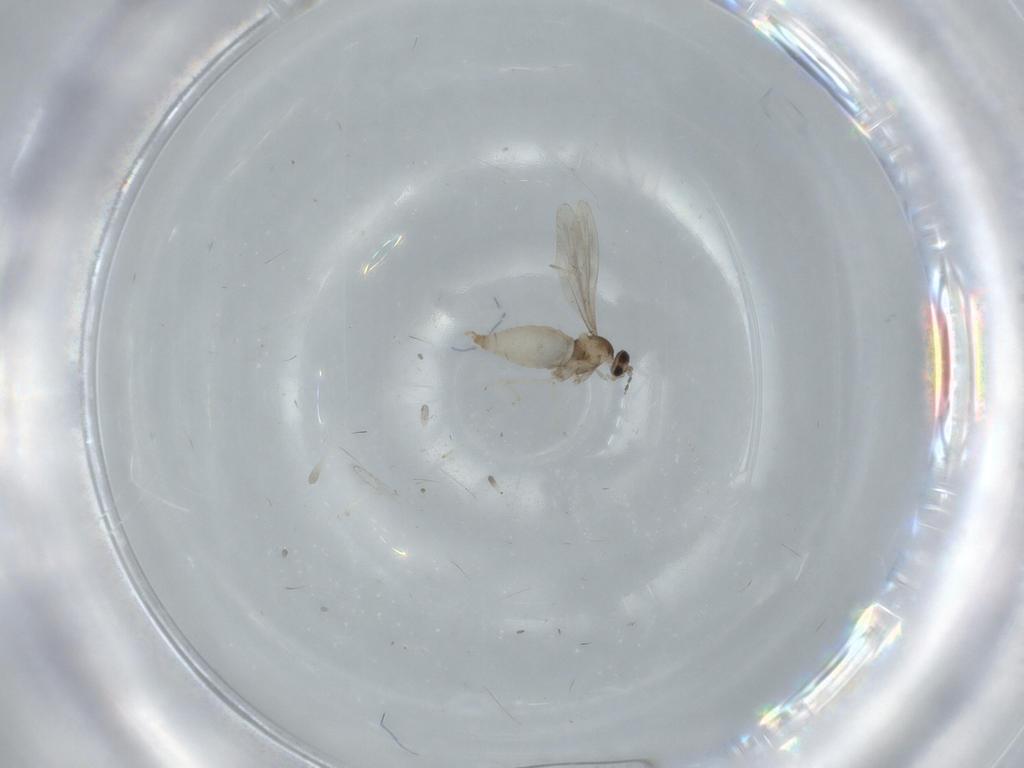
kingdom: Animalia
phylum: Arthropoda
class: Insecta
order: Diptera
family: Cecidomyiidae
